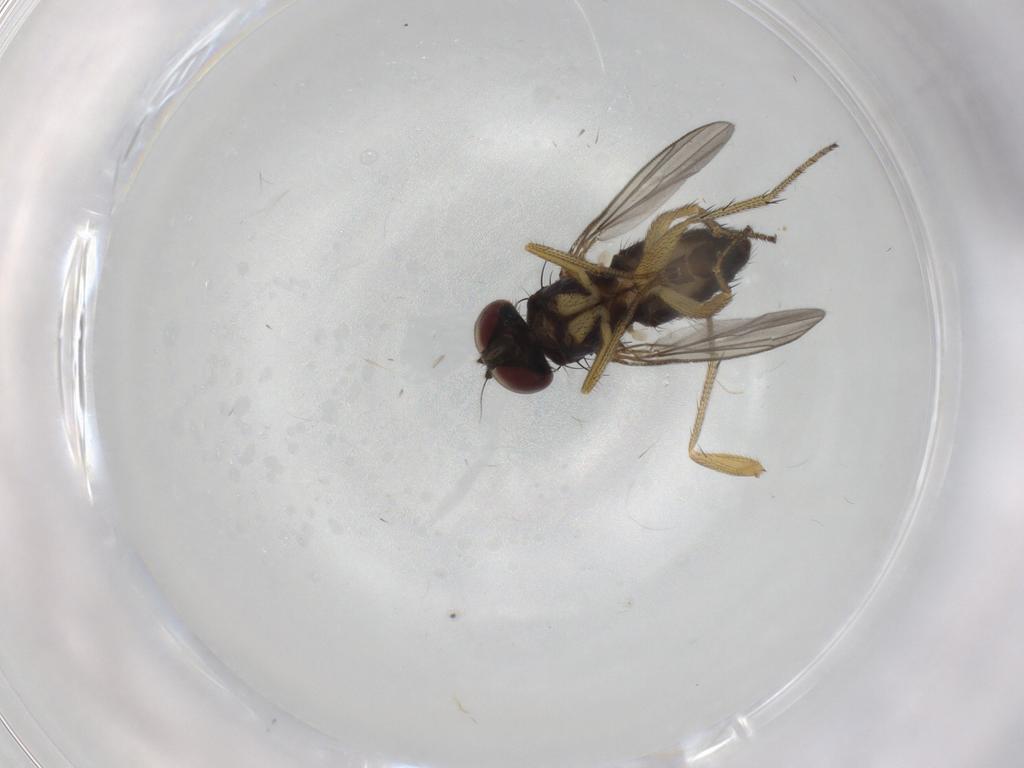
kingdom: Animalia
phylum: Arthropoda
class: Insecta
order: Diptera
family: Chironomidae
